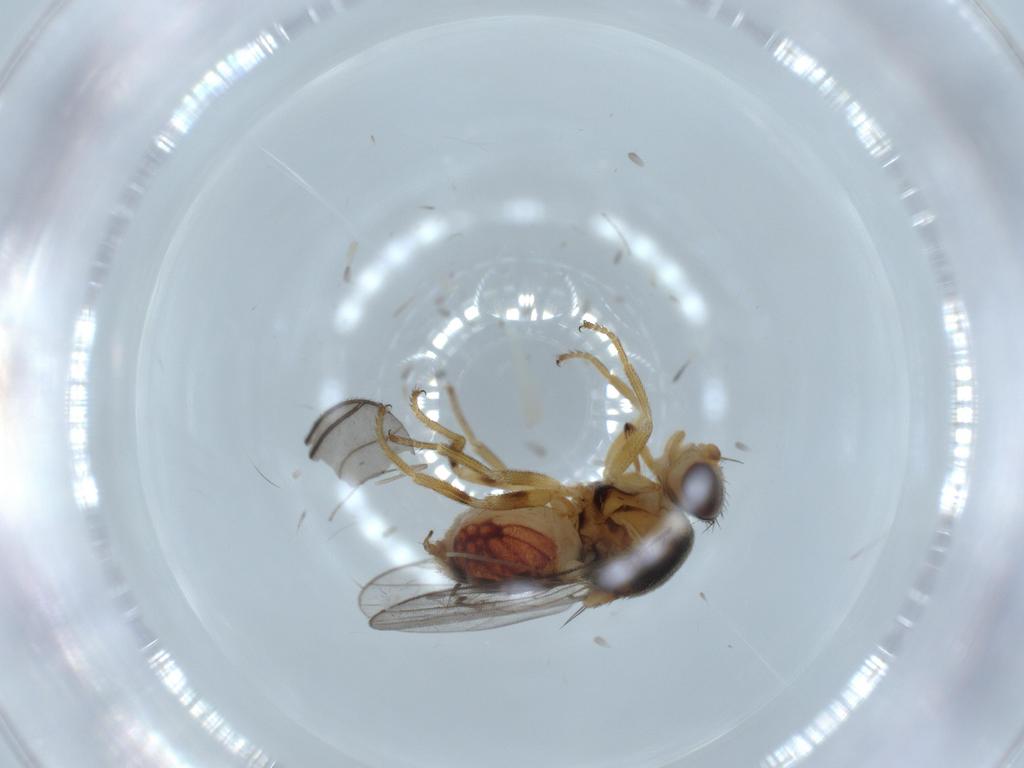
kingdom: Animalia
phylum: Arthropoda
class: Insecta
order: Diptera
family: Chloropidae
